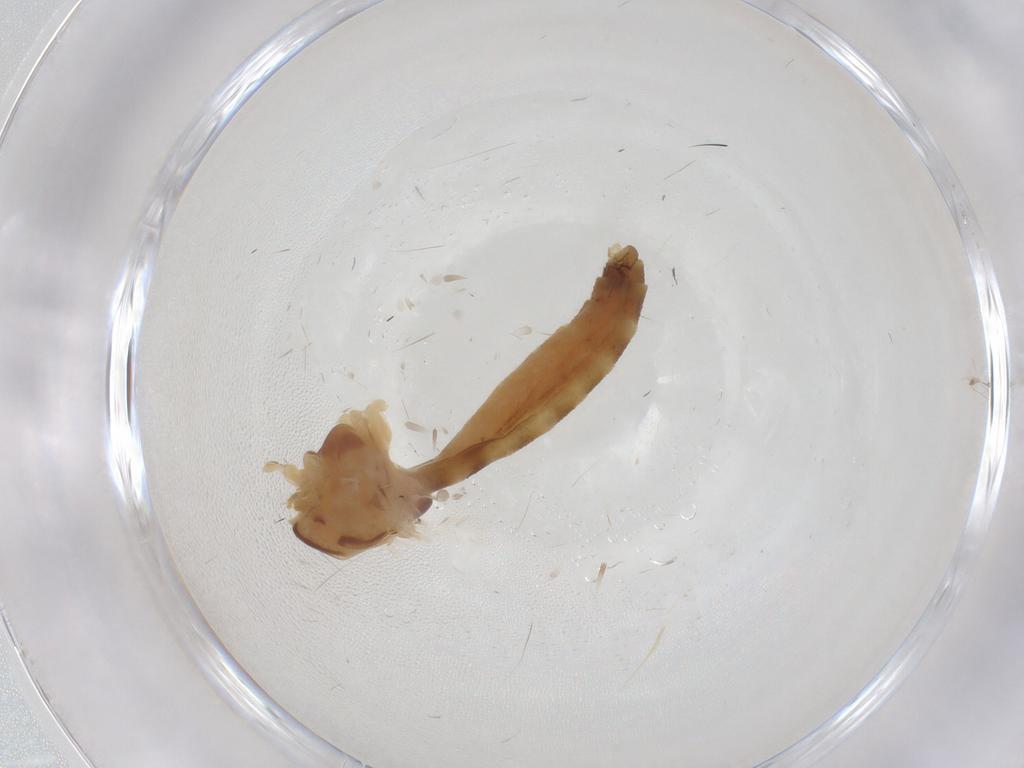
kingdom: Animalia
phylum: Arthropoda
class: Insecta
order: Diptera
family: Chironomidae
